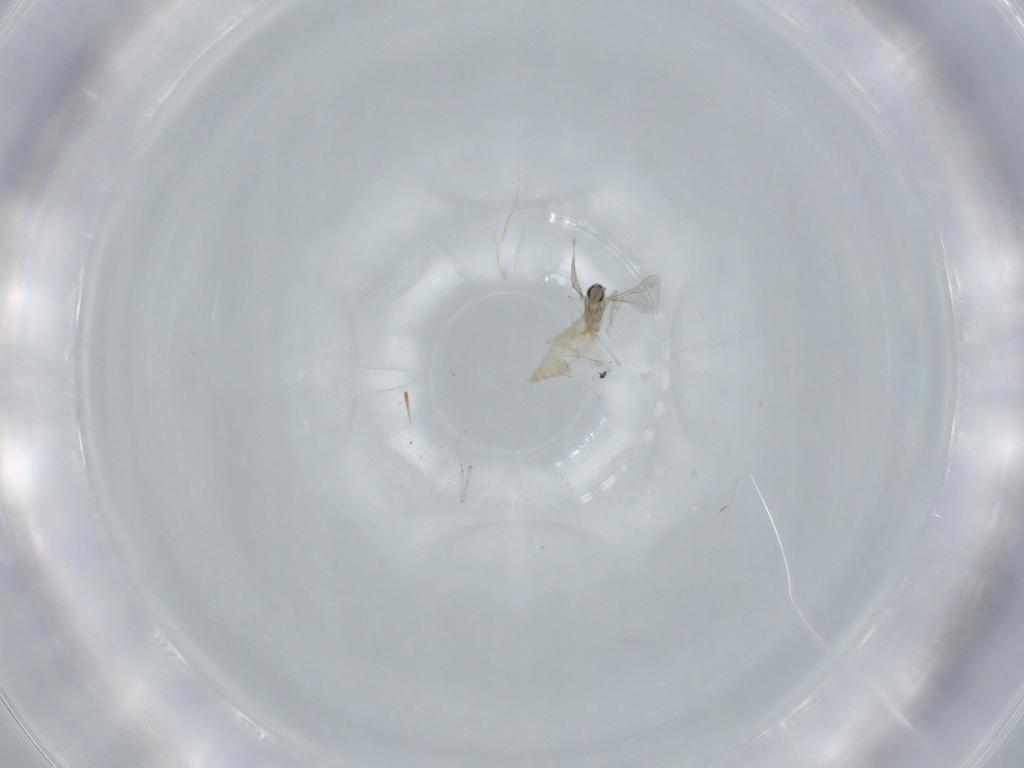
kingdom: Animalia
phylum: Arthropoda
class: Insecta
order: Diptera
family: Cecidomyiidae
